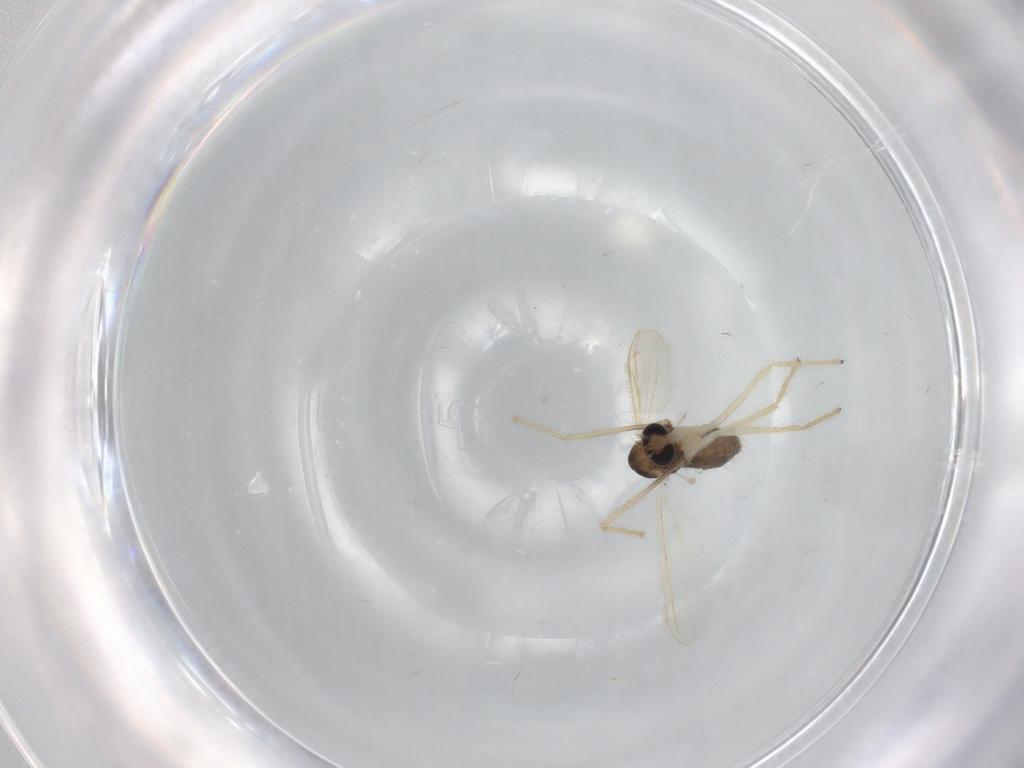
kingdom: Animalia
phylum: Arthropoda
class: Insecta
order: Diptera
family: Chironomidae
